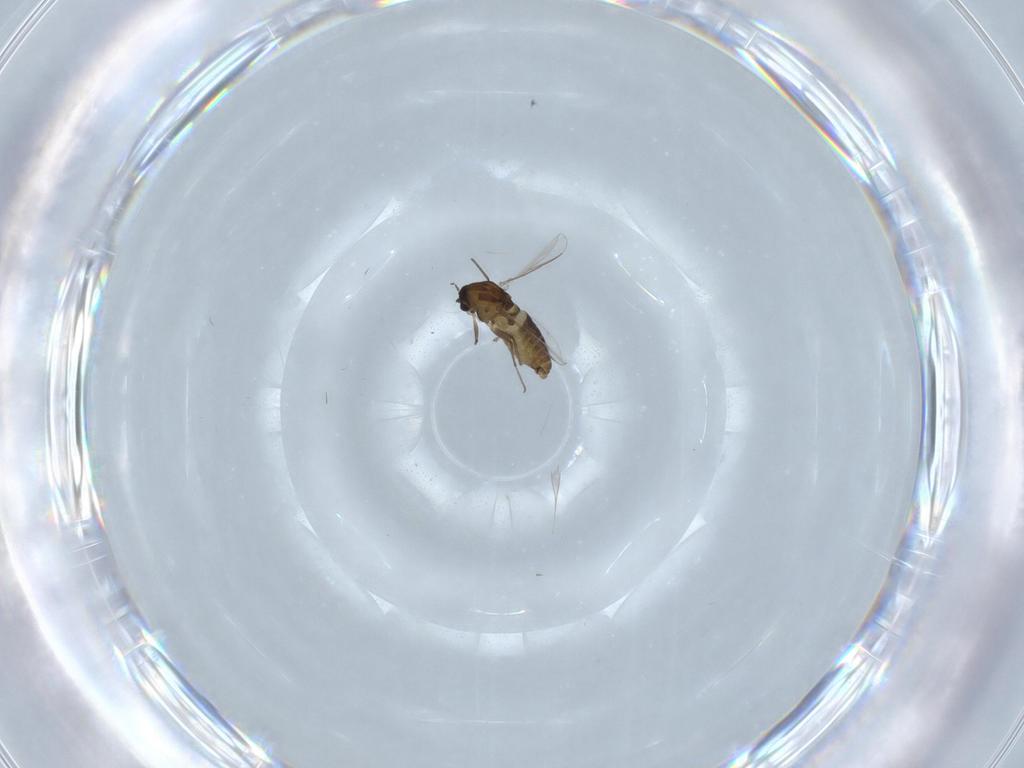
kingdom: Animalia
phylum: Arthropoda
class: Insecta
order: Diptera
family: Chironomidae
